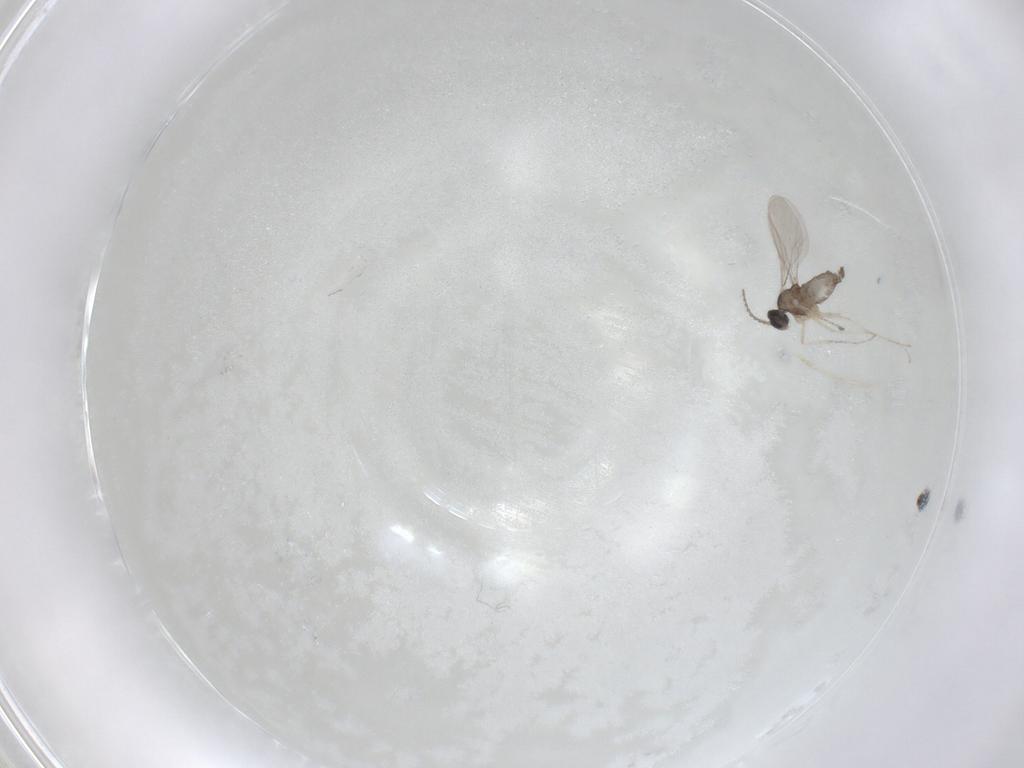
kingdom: Animalia
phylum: Arthropoda
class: Insecta
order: Diptera
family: Cecidomyiidae
